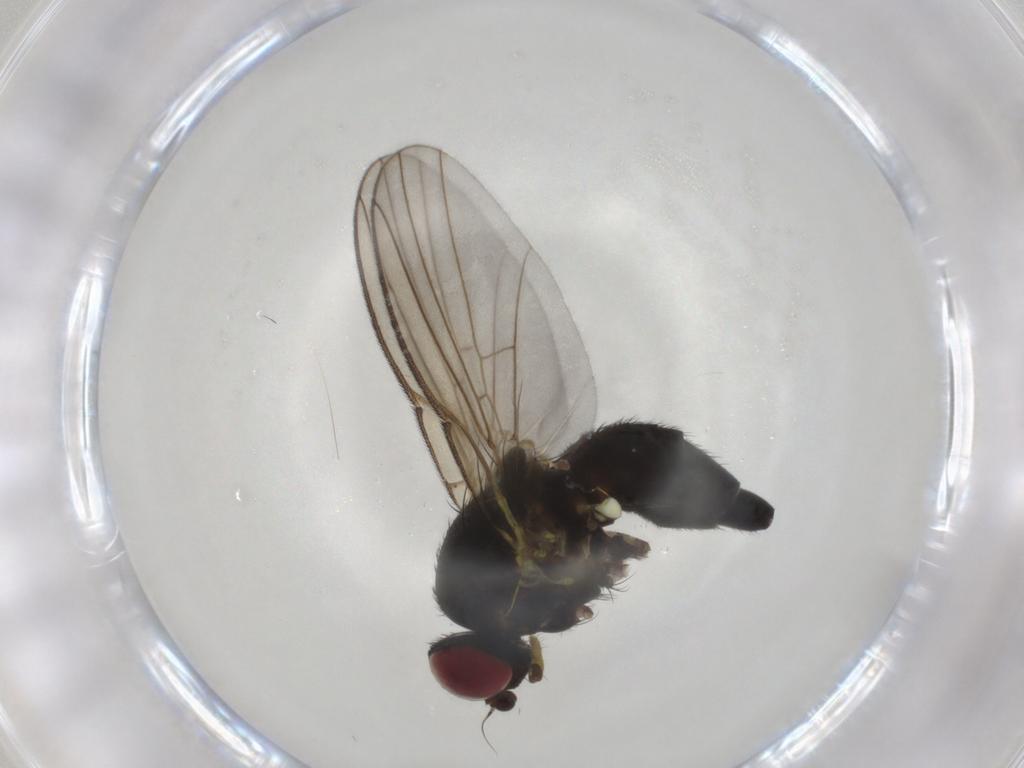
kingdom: Animalia
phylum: Arthropoda
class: Insecta
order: Diptera
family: Agromyzidae
